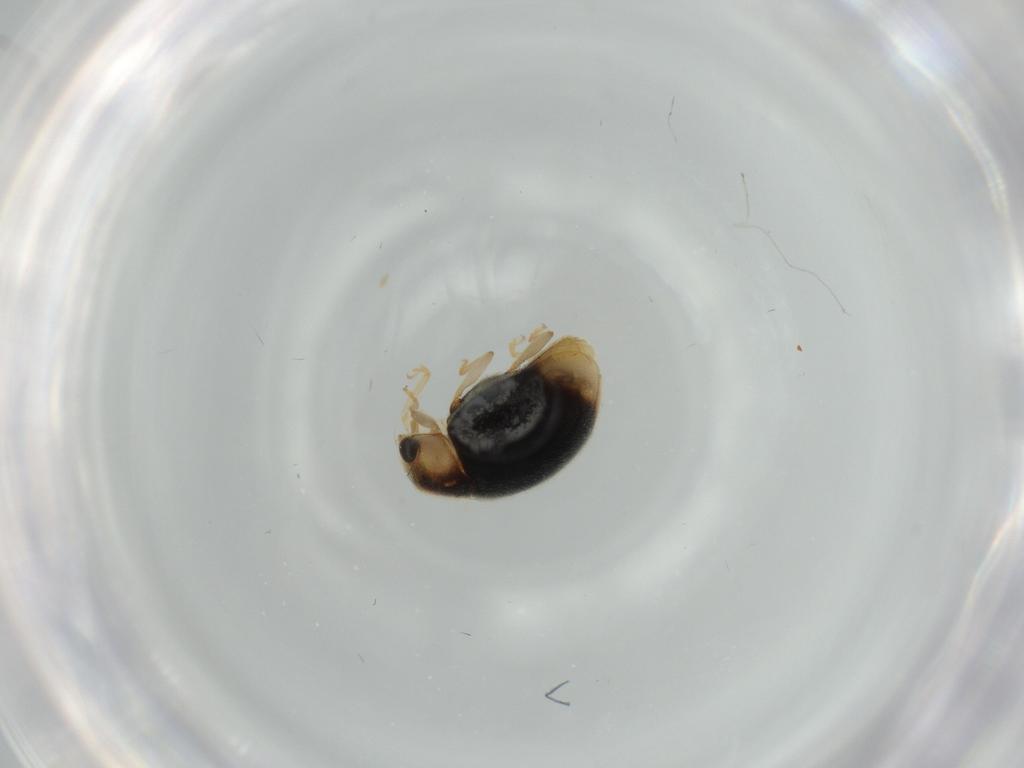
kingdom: Animalia
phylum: Arthropoda
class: Insecta
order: Coleoptera
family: Coccinellidae
